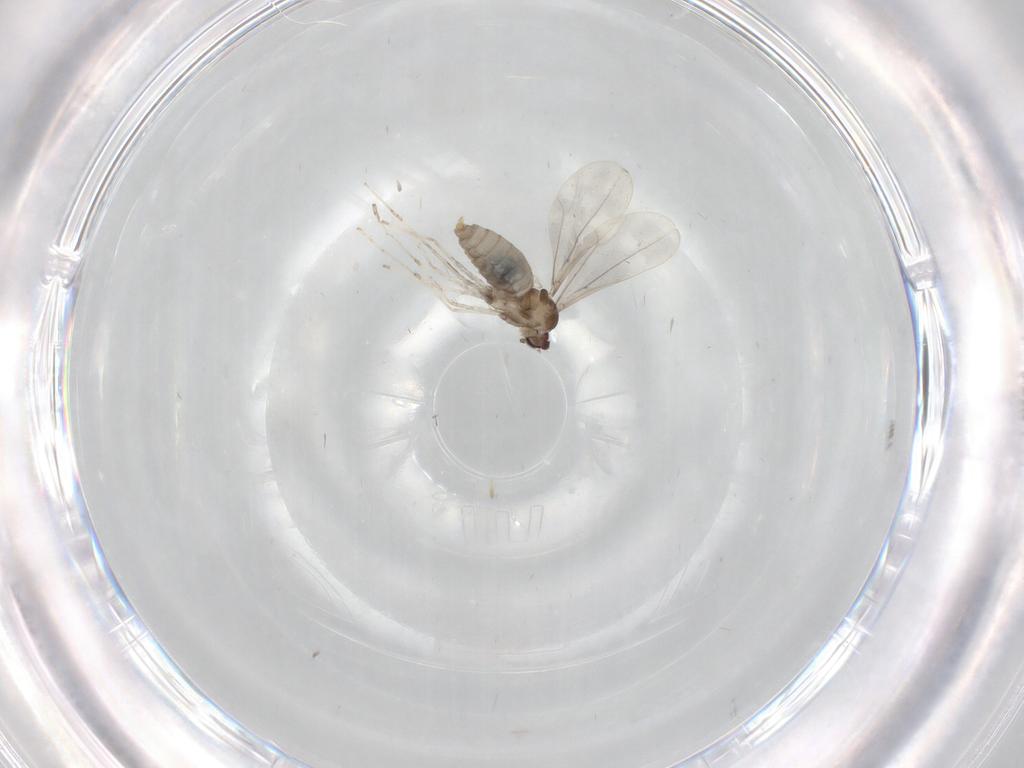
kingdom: Animalia
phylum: Arthropoda
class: Insecta
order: Diptera
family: Cecidomyiidae
